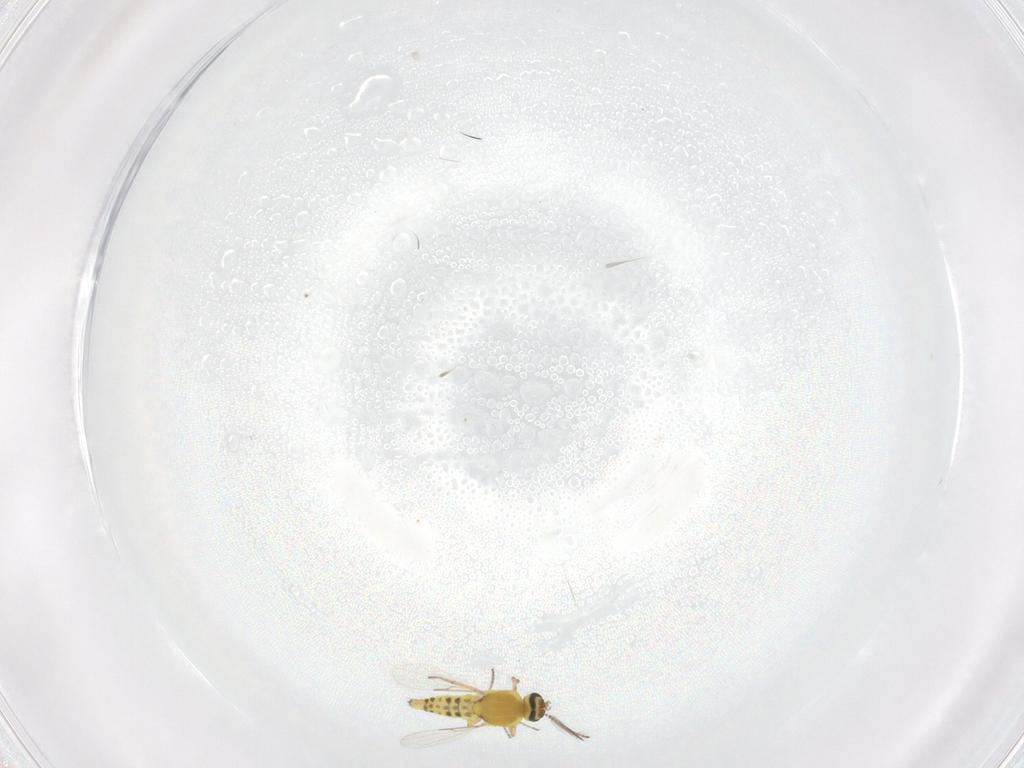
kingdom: Animalia
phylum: Arthropoda
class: Insecta
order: Diptera
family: Ceratopogonidae
